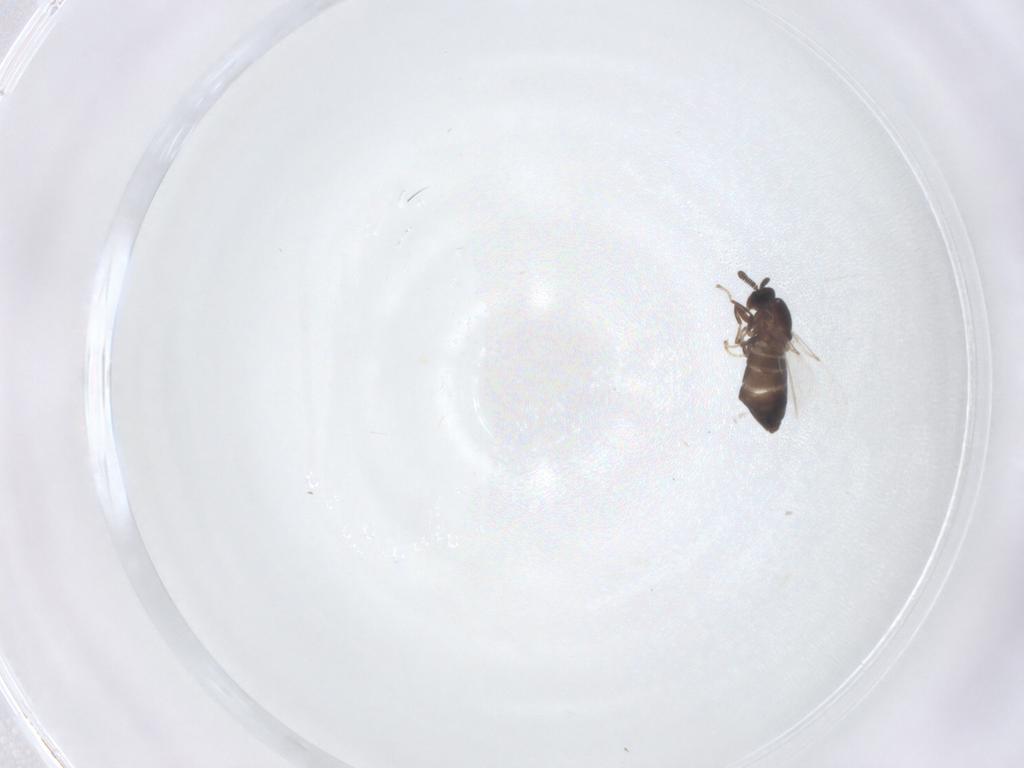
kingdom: Animalia
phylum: Arthropoda
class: Insecta
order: Diptera
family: Scatopsidae
